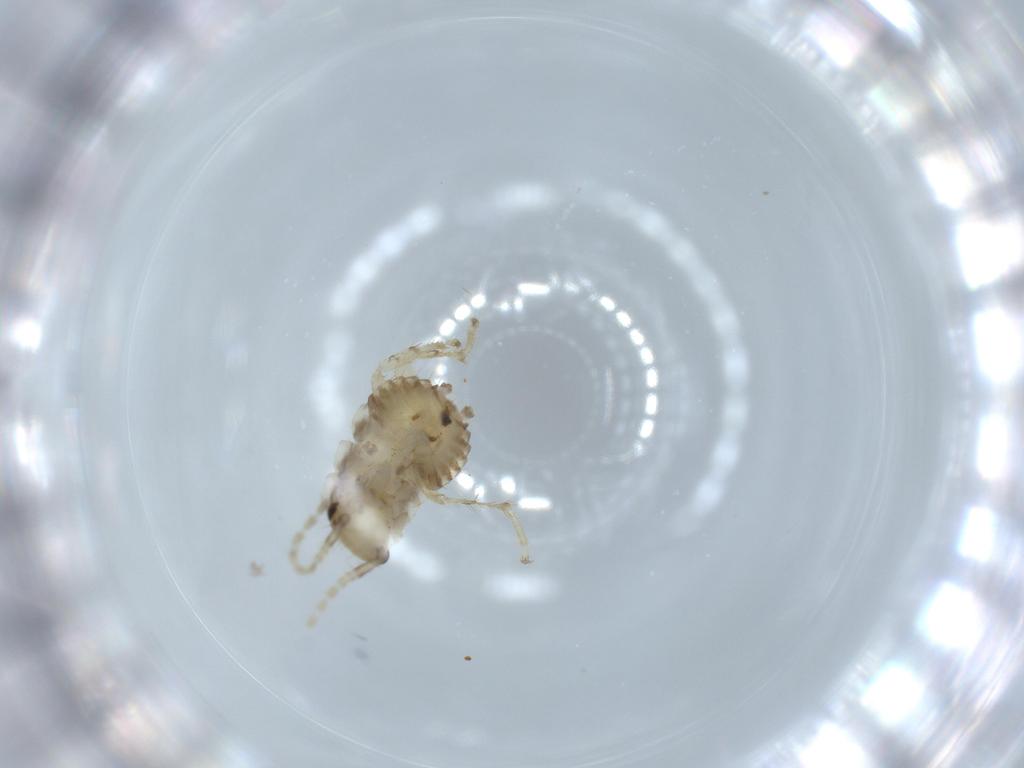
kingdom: Animalia
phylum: Arthropoda
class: Insecta
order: Blattodea
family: Ectobiidae
